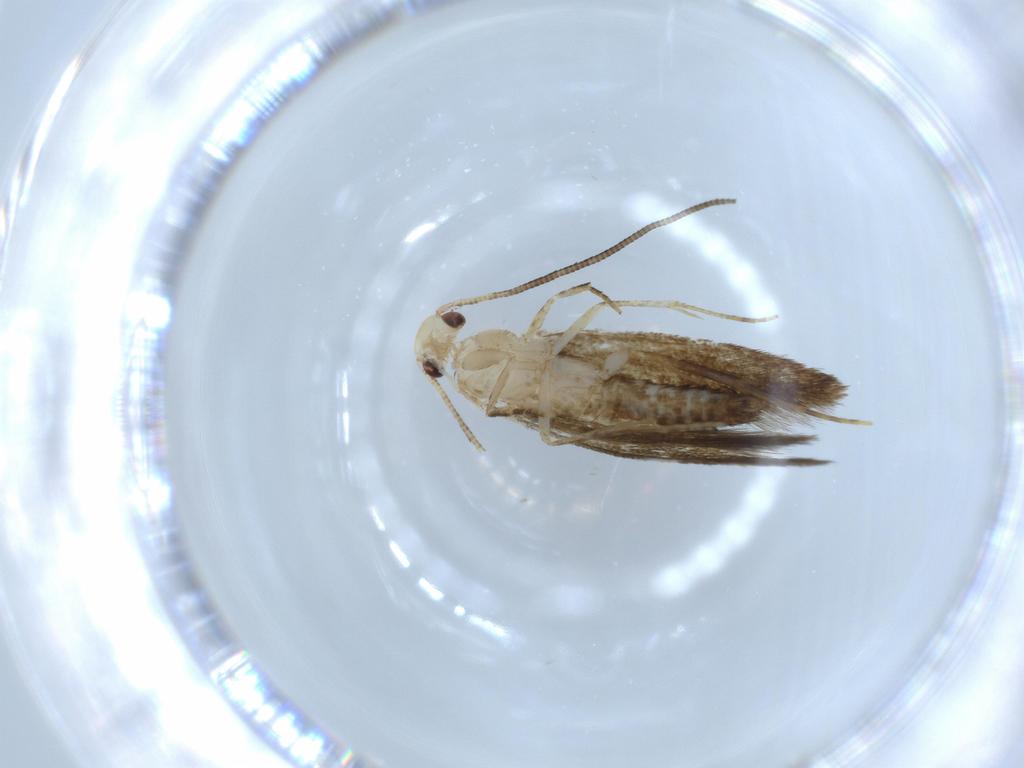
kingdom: Animalia
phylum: Arthropoda
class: Insecta
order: Lepidoptera
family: Tineidae
